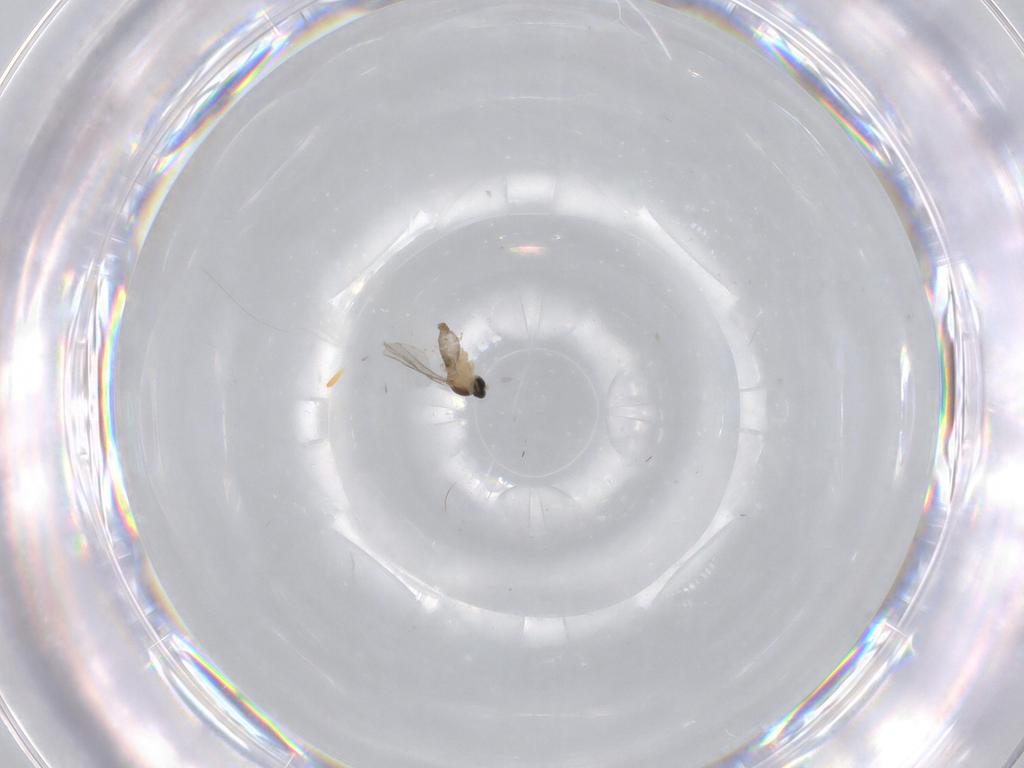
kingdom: Animalia
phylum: Arthropoda
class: Insecta
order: Diptera
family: Cecidomyiidae
